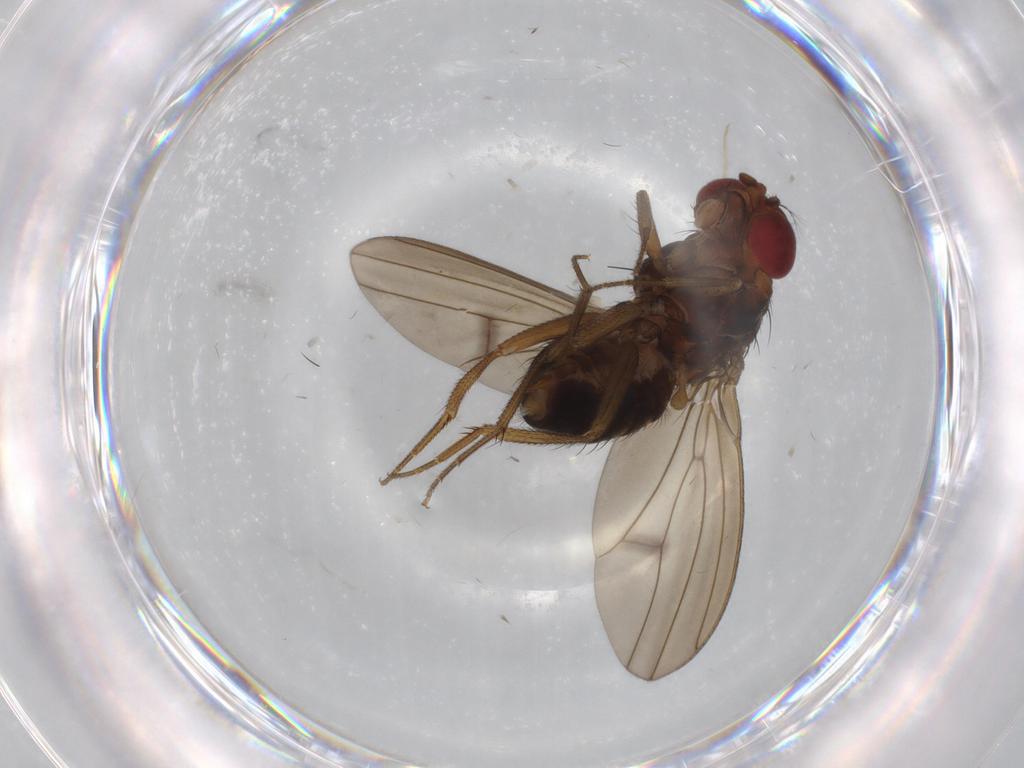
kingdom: Animalia
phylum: Arthropoda
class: Insecta
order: Diptera
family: Drosophilidae
